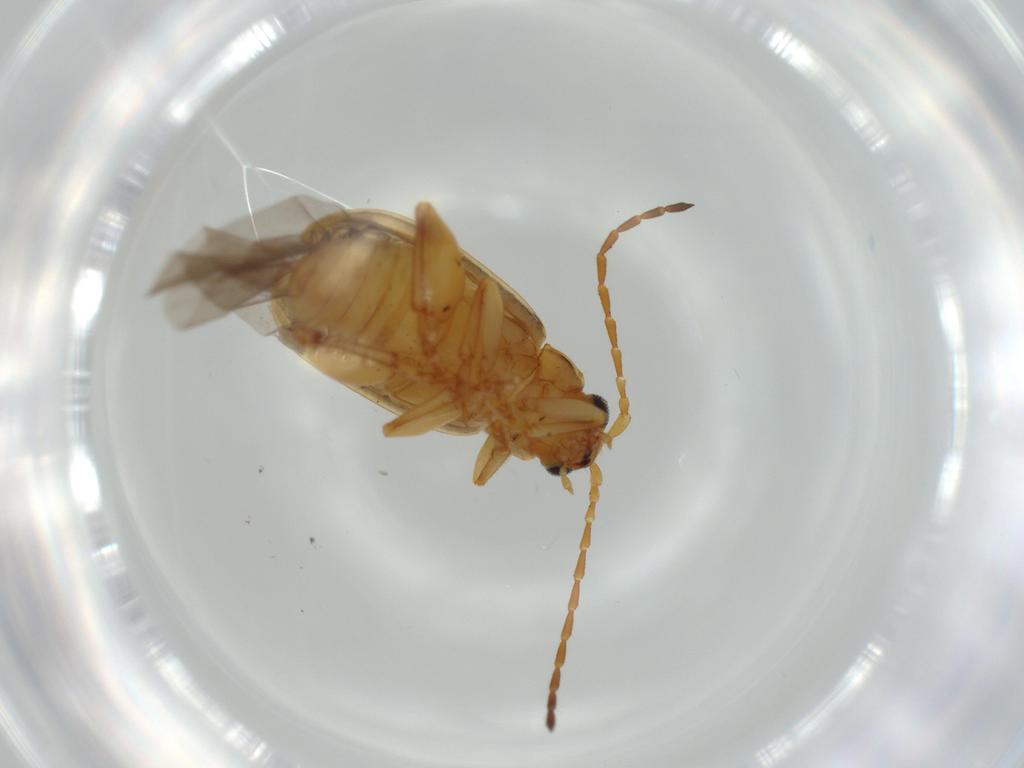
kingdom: Animalia
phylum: Arthropoda
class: Insecta
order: Coleoptera
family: Chrysomelidae
